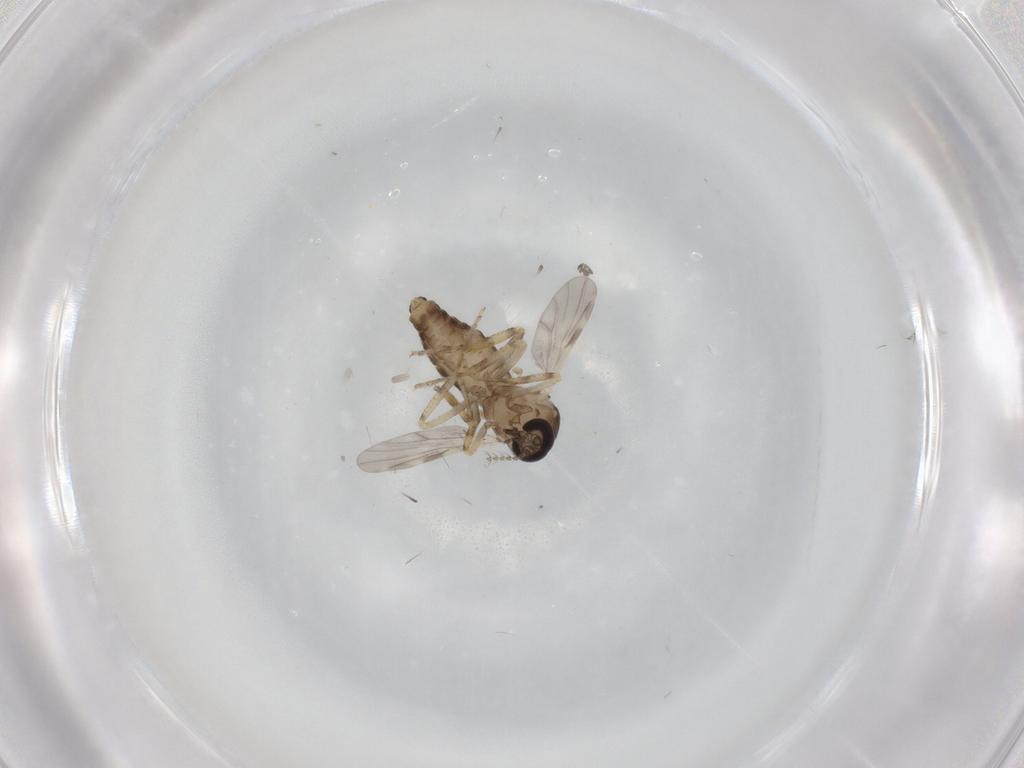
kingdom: Animalia
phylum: Arthropoda
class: Insecta
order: Diptera
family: Ceratopogonidae
